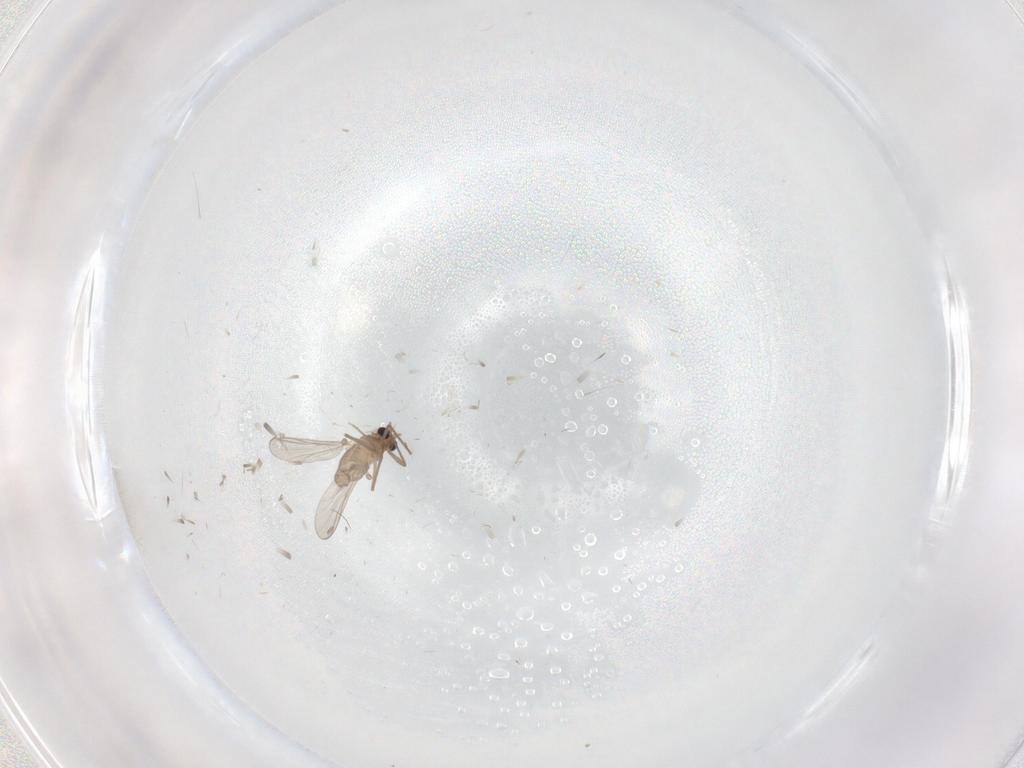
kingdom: Animalia
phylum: Arthropoda
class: Insecta
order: Diptera
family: Chironomidae
